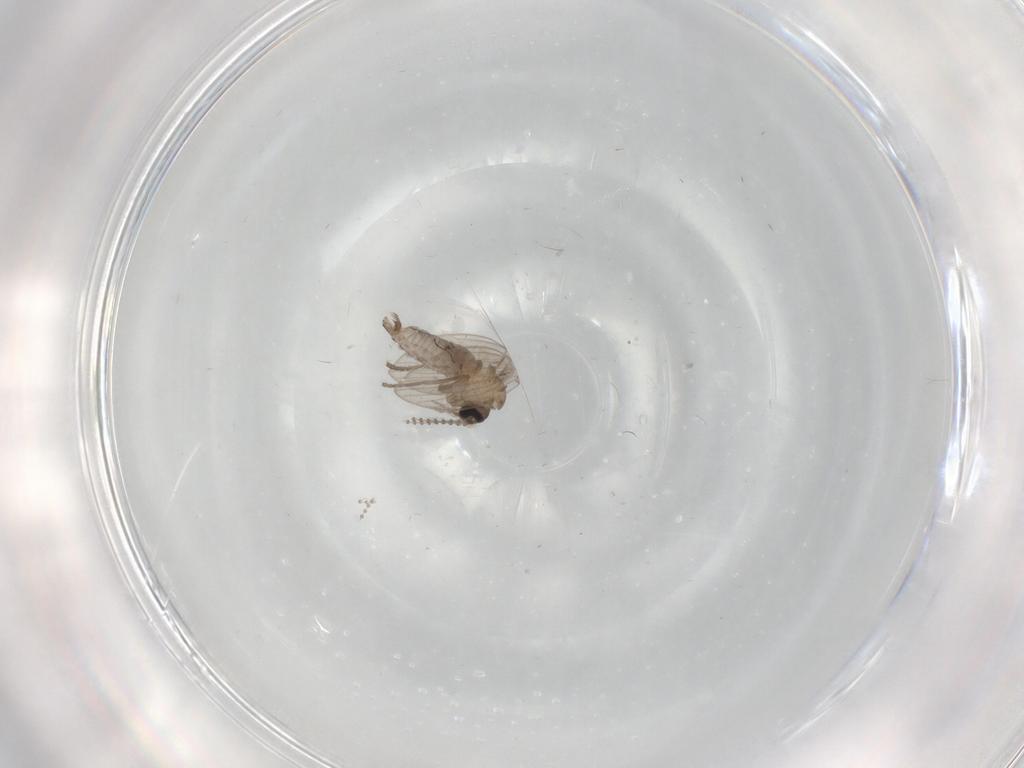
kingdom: Animalia
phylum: Arthropoda
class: Insecta
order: Diptera
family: Psychodidae
